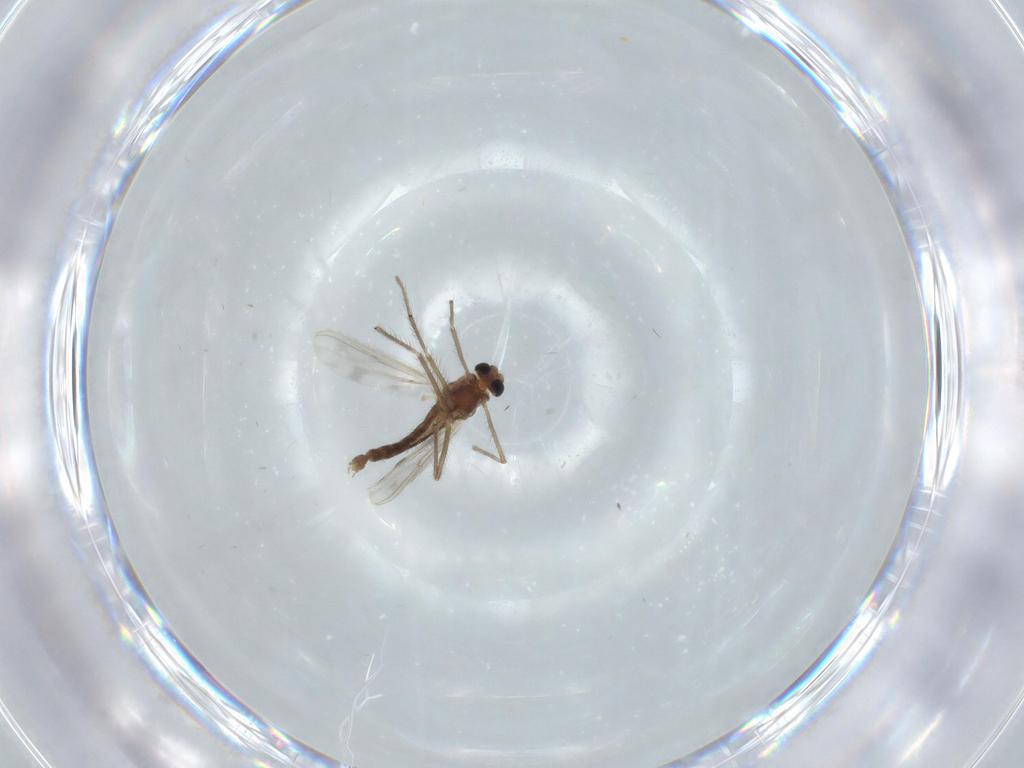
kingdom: Animalia
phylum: Arthropoda
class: Insecta
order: Diptera
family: Chironomidae
